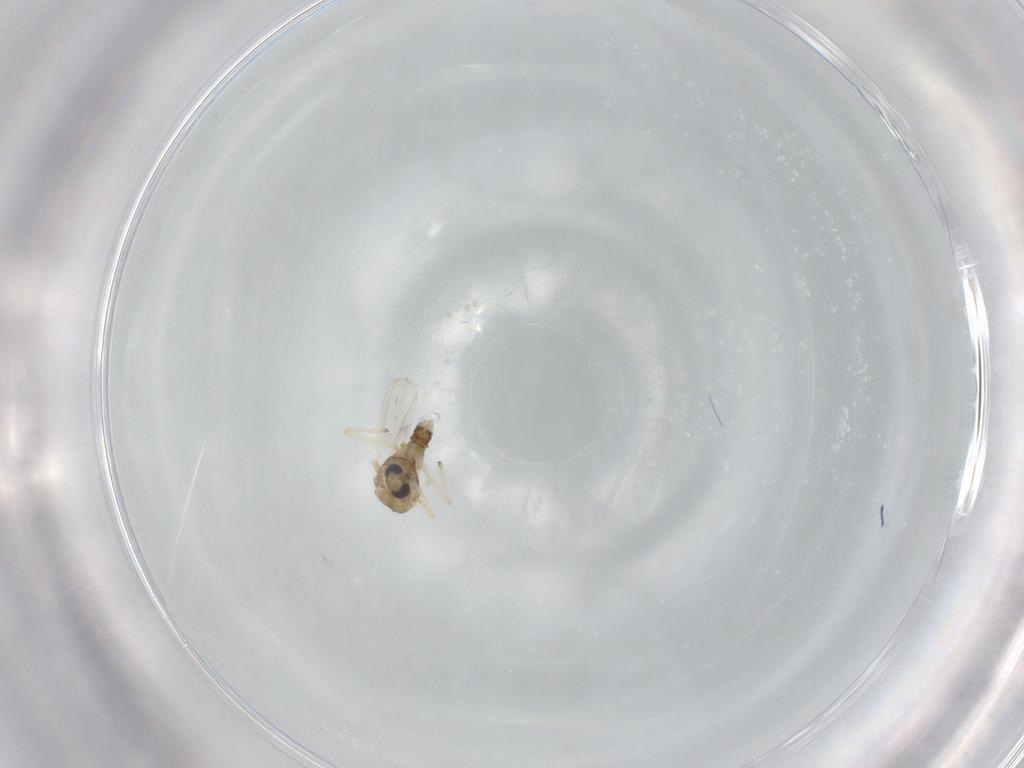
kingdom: Animalia
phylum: Arthropoda
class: Insecta
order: Diptera
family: Chironomidae
